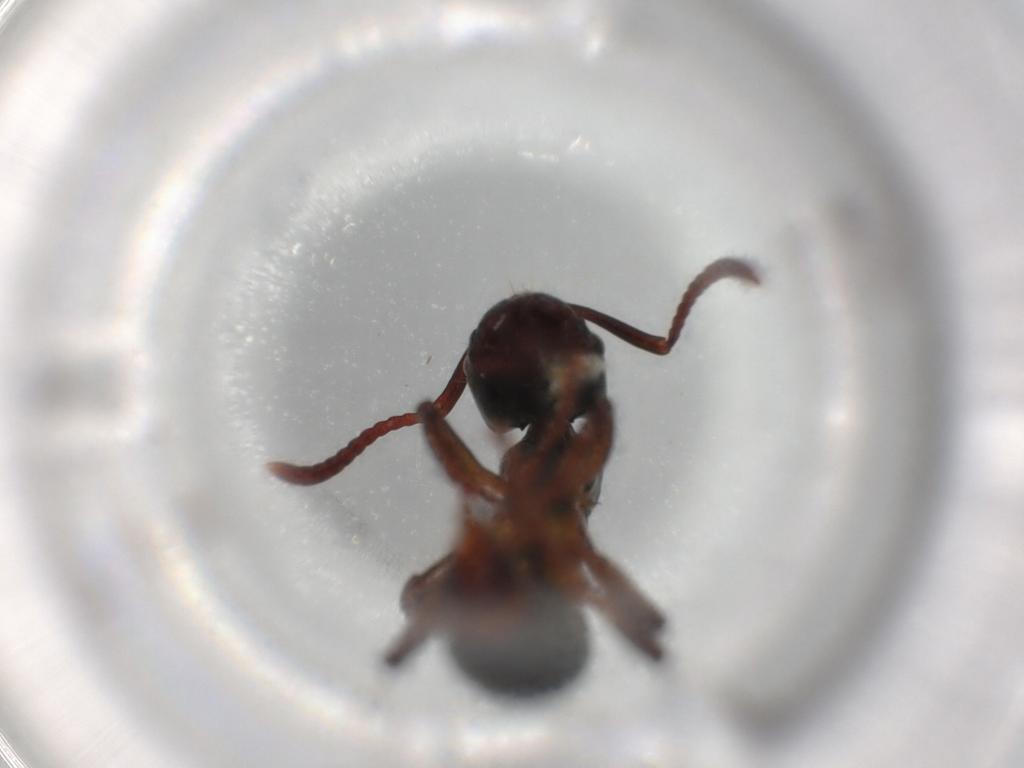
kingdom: Animalia
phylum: Arthropoda
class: Insecta
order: Hymenoptera
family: Formicidae
